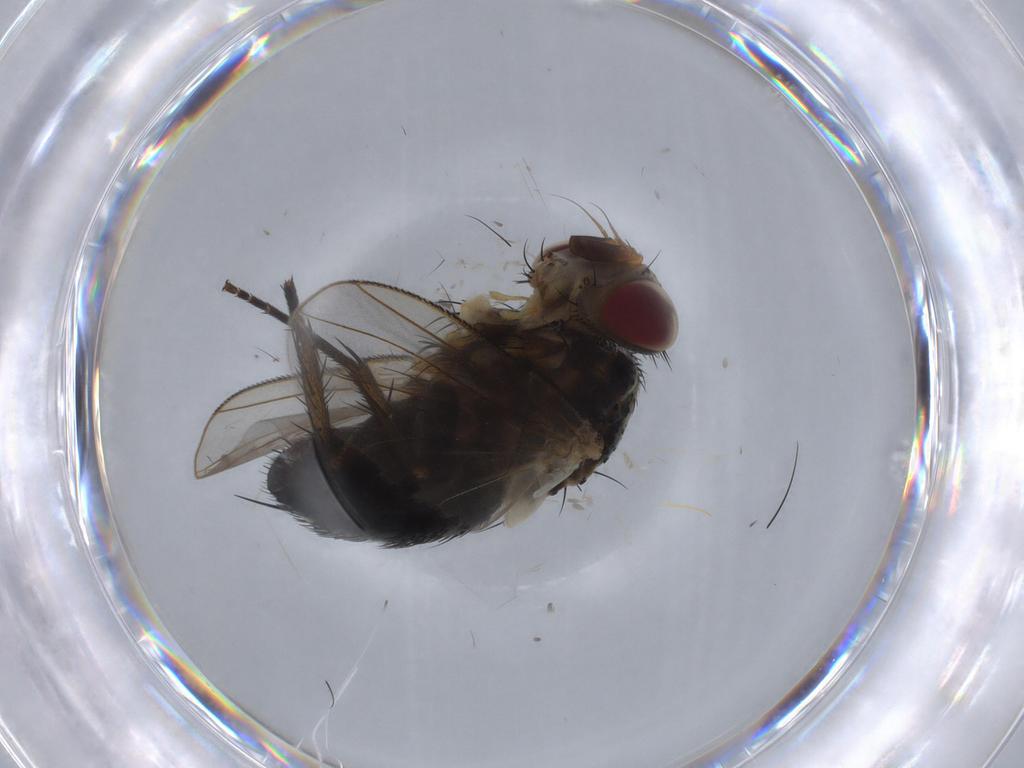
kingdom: Animalia
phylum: Arthropoda
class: Insecta
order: Diptera
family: Tachinidae
